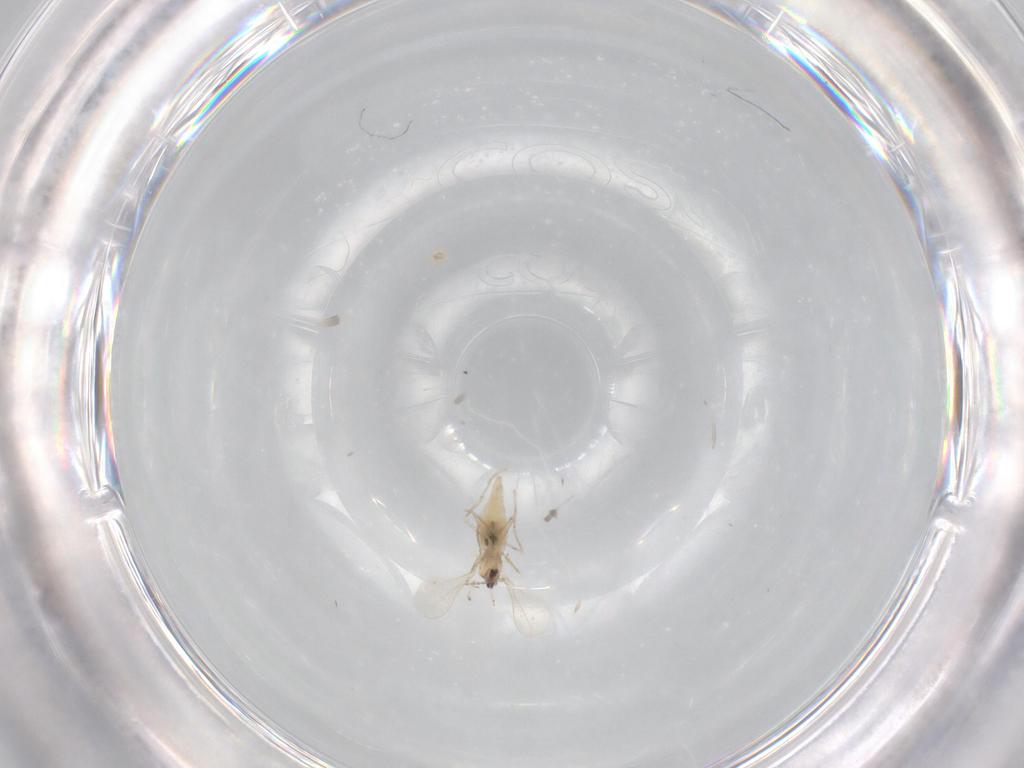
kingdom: Animalia
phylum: Arthropoda
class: Insecta
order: Diptera
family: Cecidomyiidae
